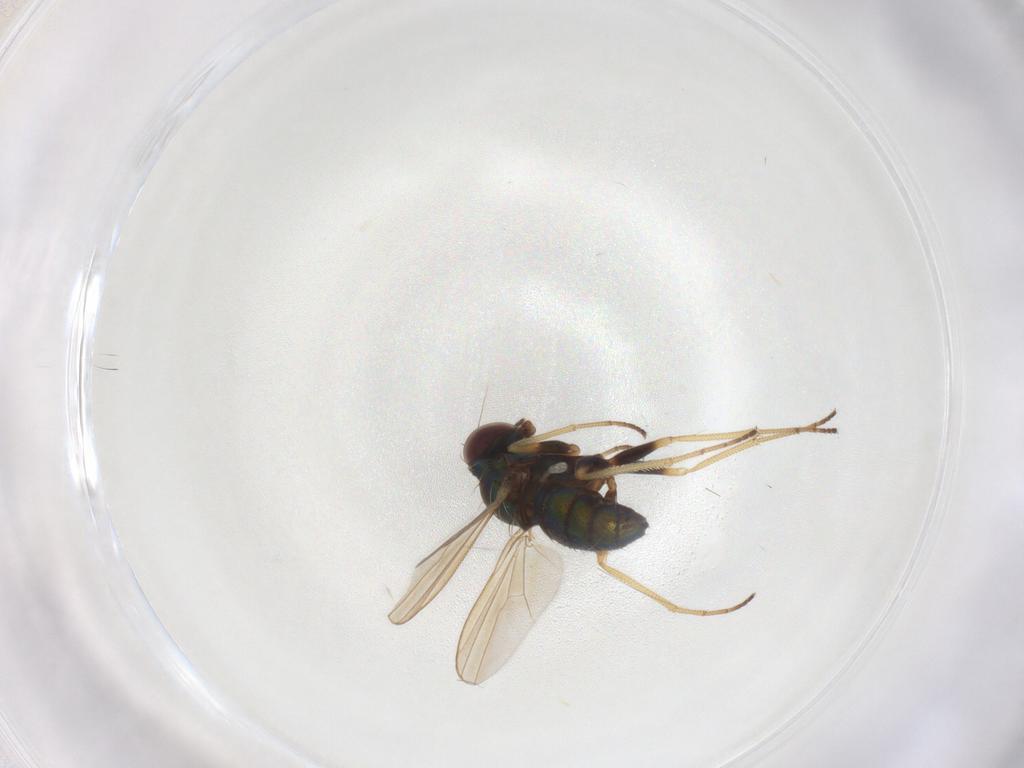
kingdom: Animalia
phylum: Arthropoda
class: Insecta
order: Diptera
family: Dolichopodidae
